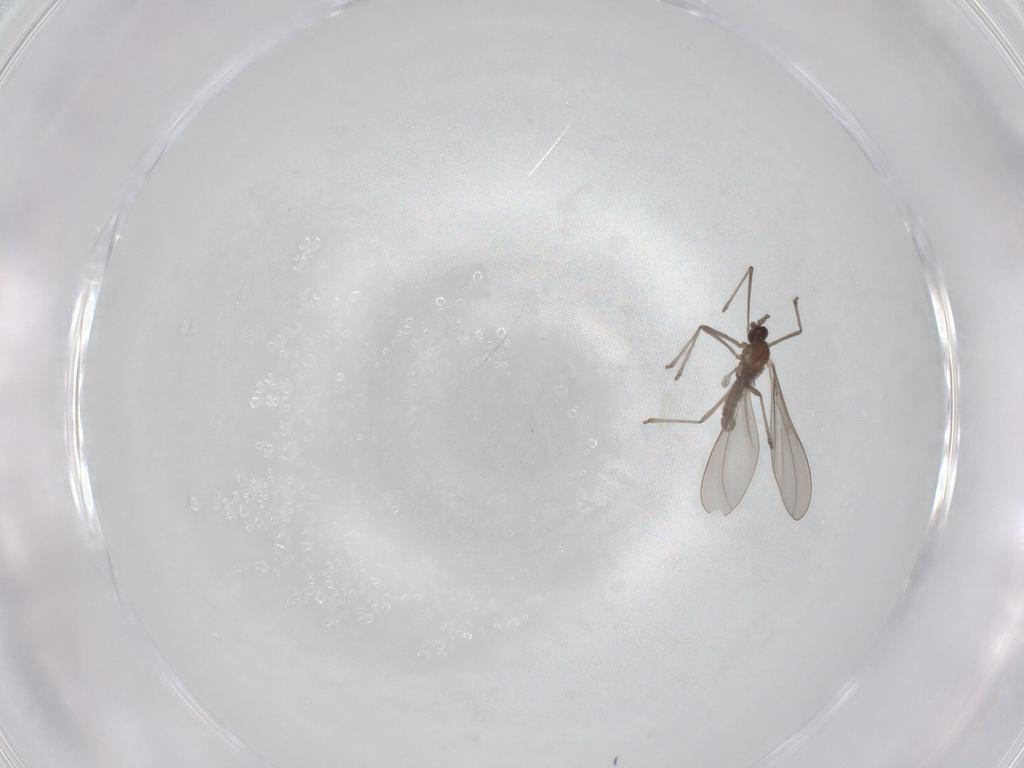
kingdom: Animalia
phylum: Arthropoda
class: Insecta
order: Diptera
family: Cecidomyiidae
